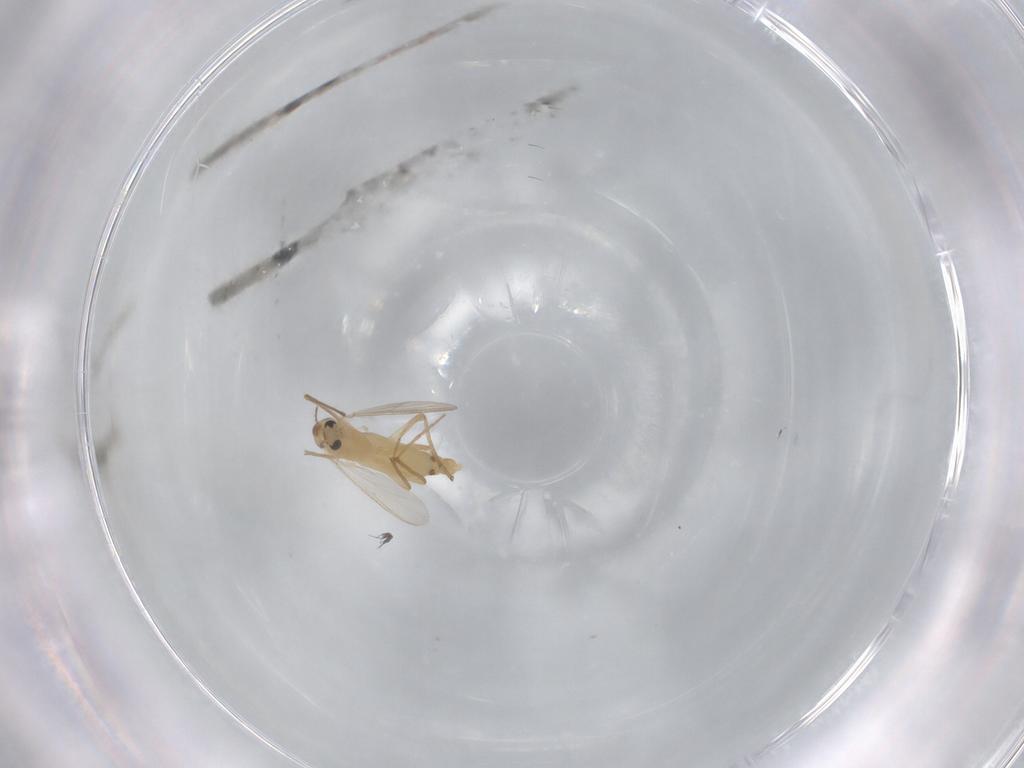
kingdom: Animalia
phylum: Arthropoda
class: Insecta
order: Diptera
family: Chironomidae
